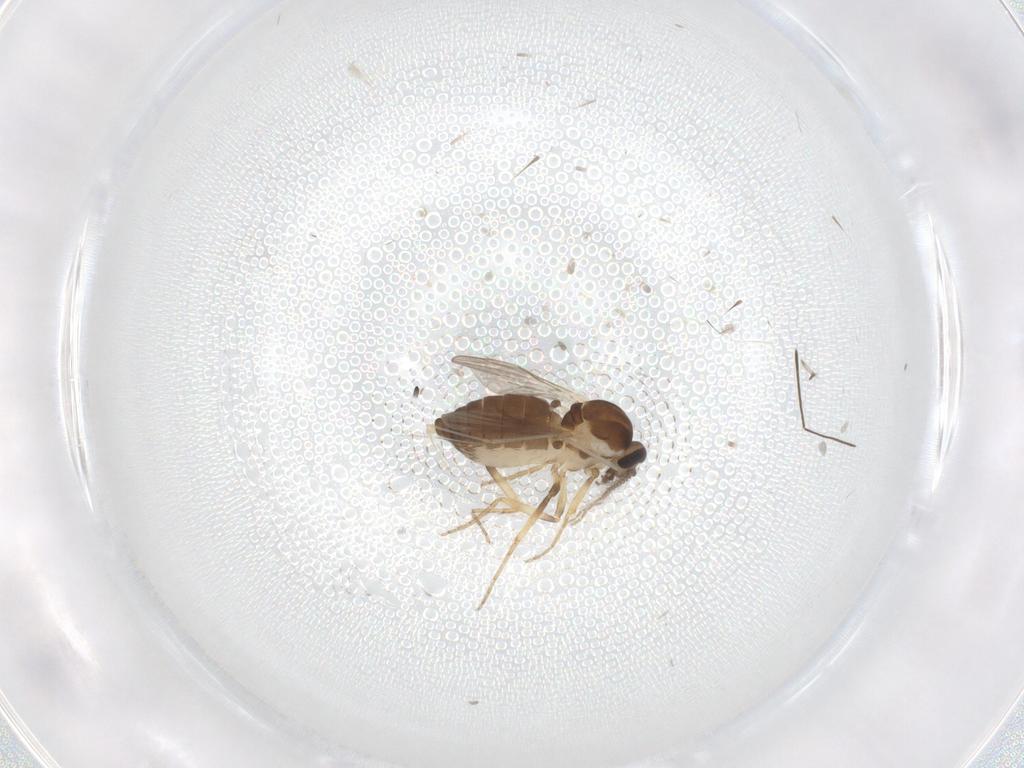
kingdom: Animalia
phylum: Arthropoda
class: Insecta
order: Diptera
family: Ceratopogonidae
